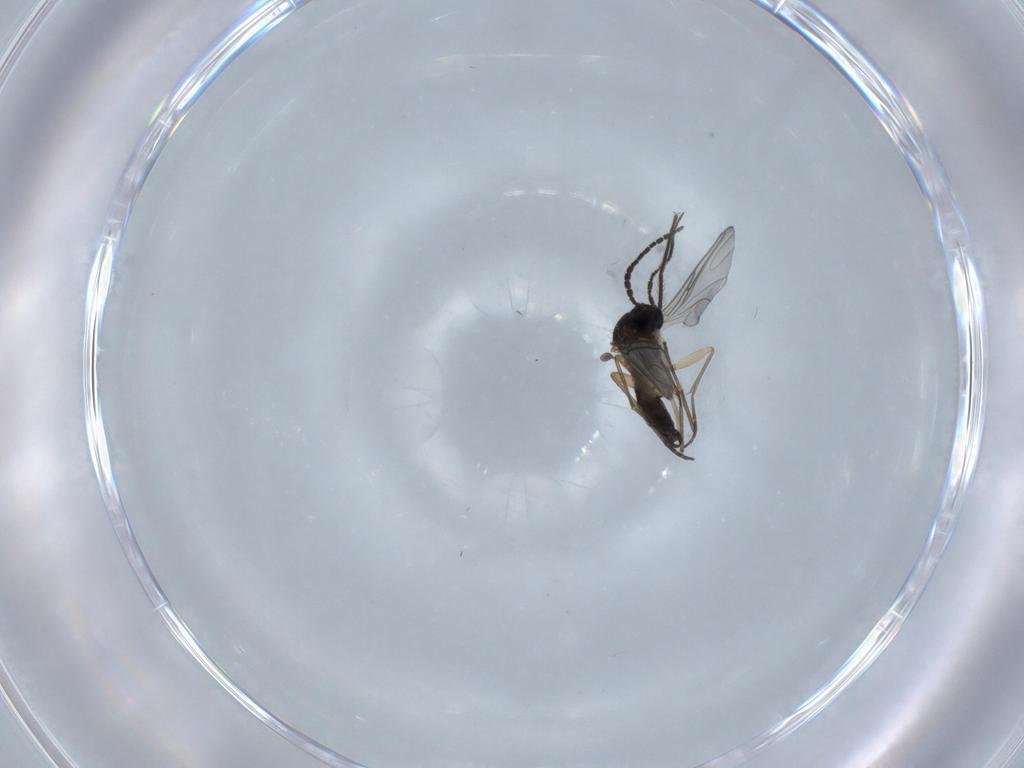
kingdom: Animalia
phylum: Arthropoda
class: Insecta
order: Diptera
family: Sciaridae
